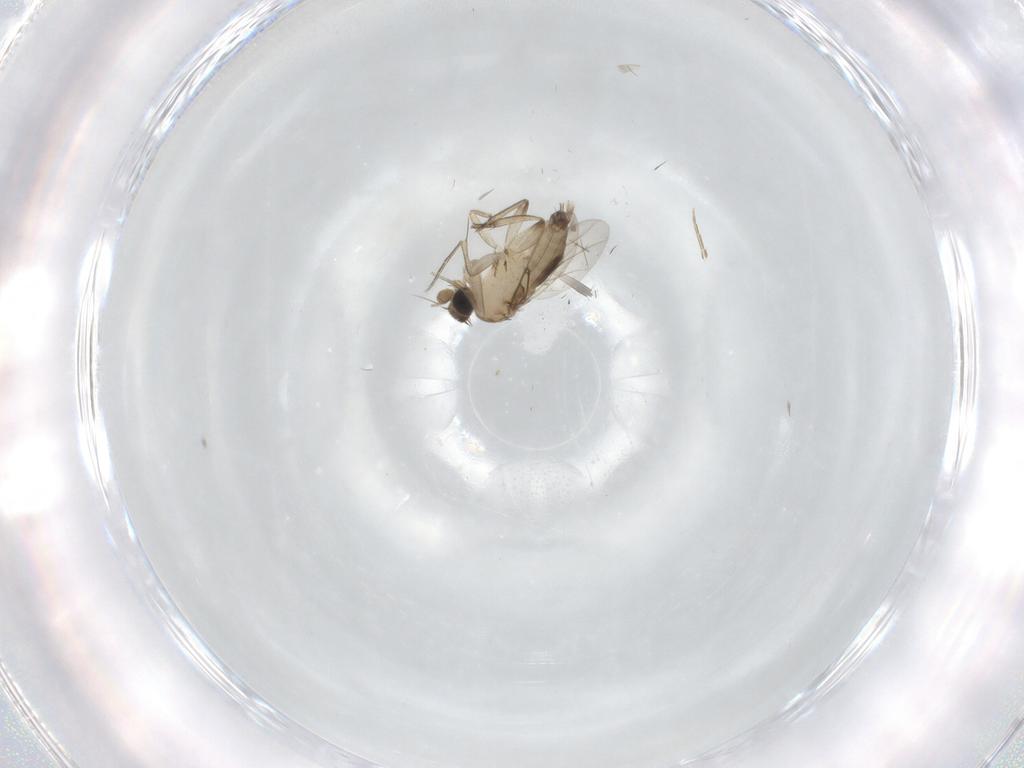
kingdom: Animalia
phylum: Arthropoda
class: Insecta
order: Diptera
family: Phoridae
